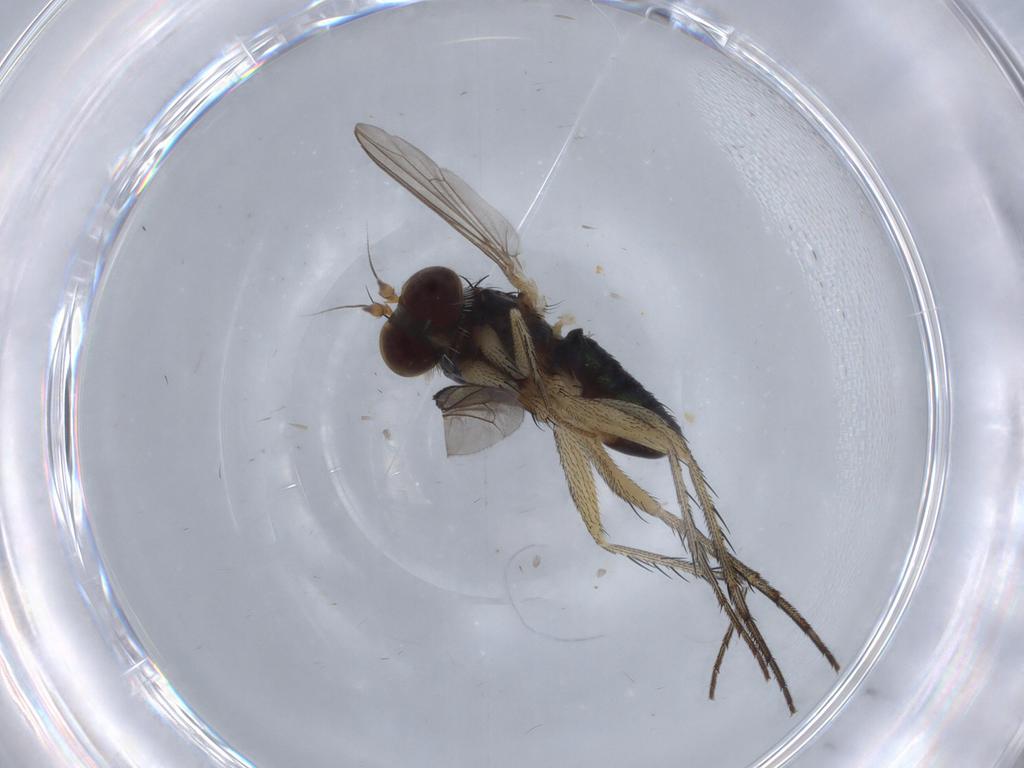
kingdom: Animalia
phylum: Arthropoda
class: Insecta
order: Diptera
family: Dolichopodidae
